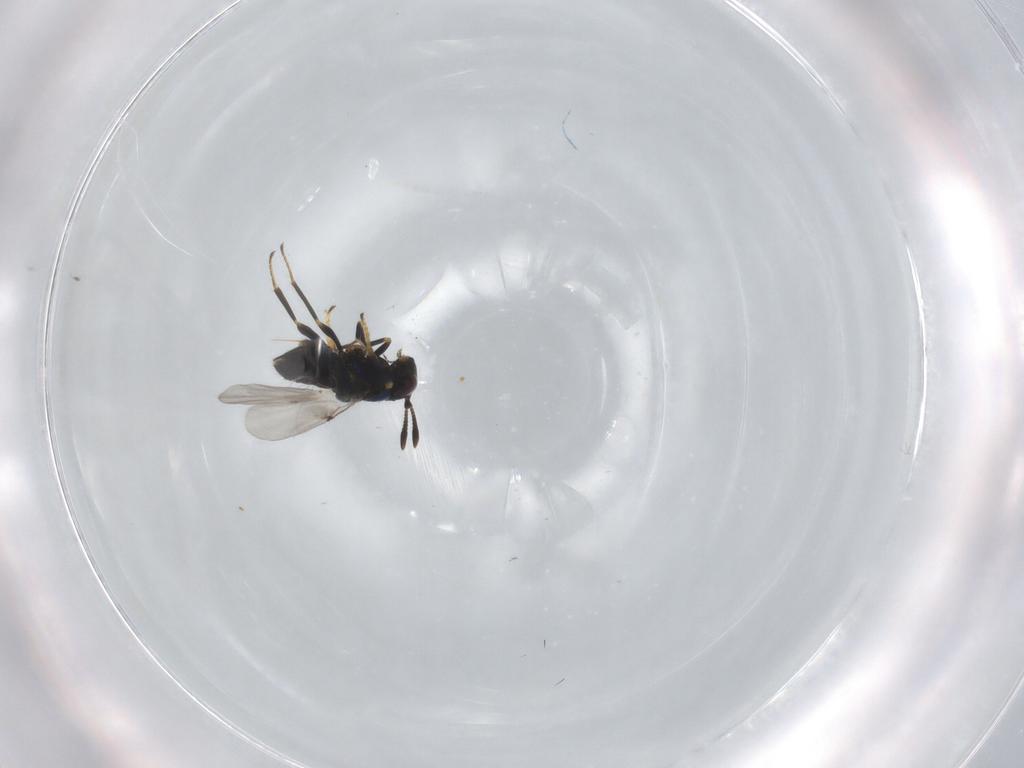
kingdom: Animalia
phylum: Arthropoda
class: Insecta
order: Hymenoptera
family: Encyrtidae
